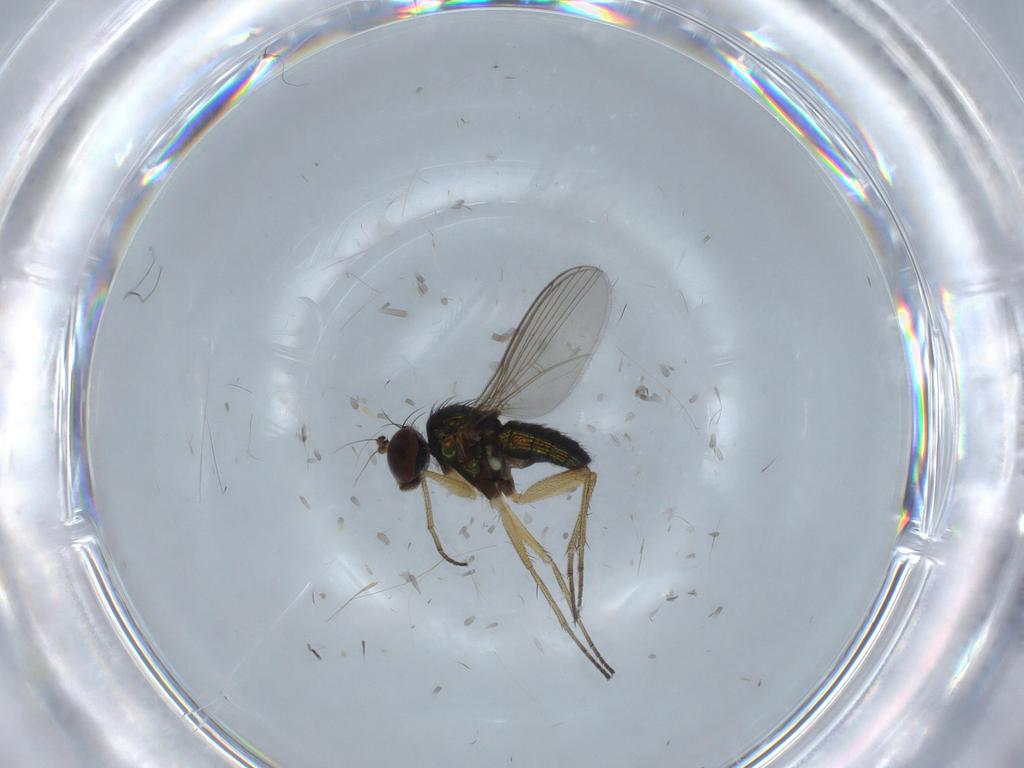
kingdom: Animalia
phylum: Arthropoda
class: Insecta
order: Diptera
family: Cecidomyiidae
